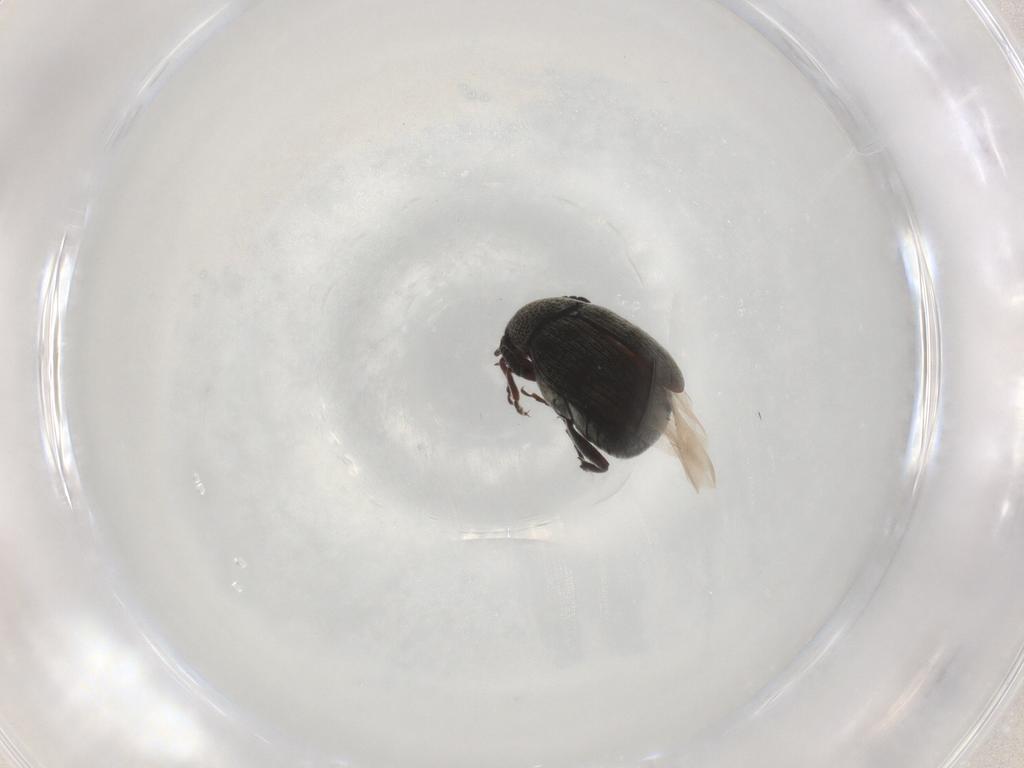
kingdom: Animalia
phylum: Arthropoda
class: Insecta
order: Coleoptera
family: Chrysomelidae
